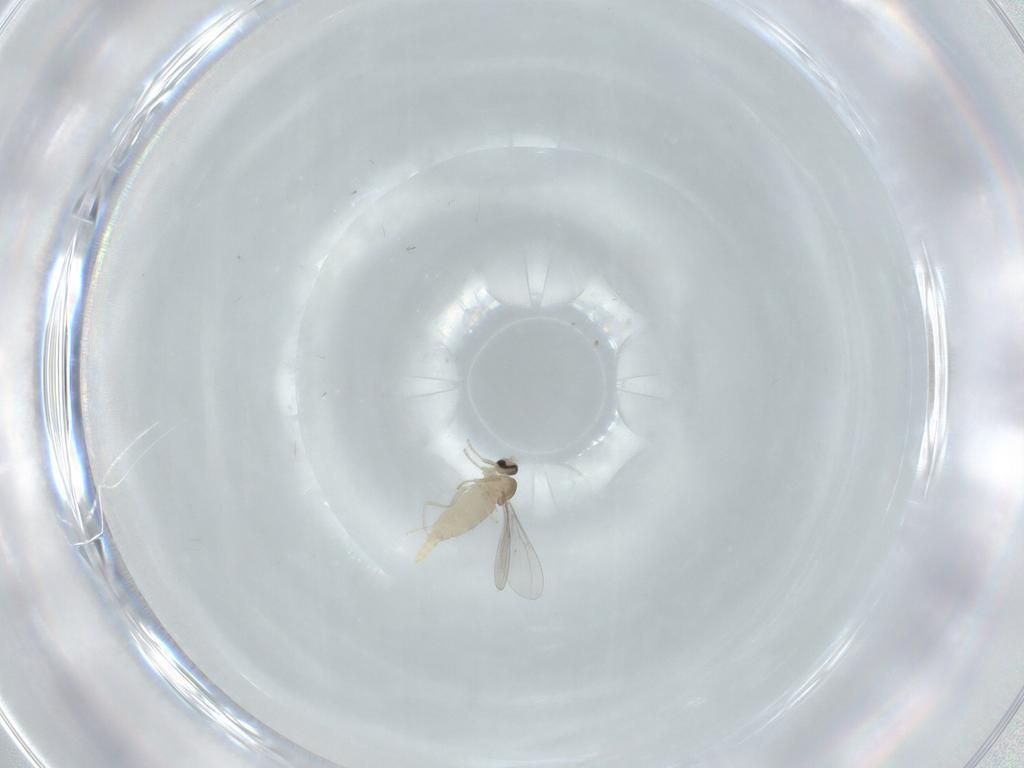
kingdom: Animalia
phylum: Arthropoda
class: Insecta
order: Diptera
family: Cecidomyiidae
